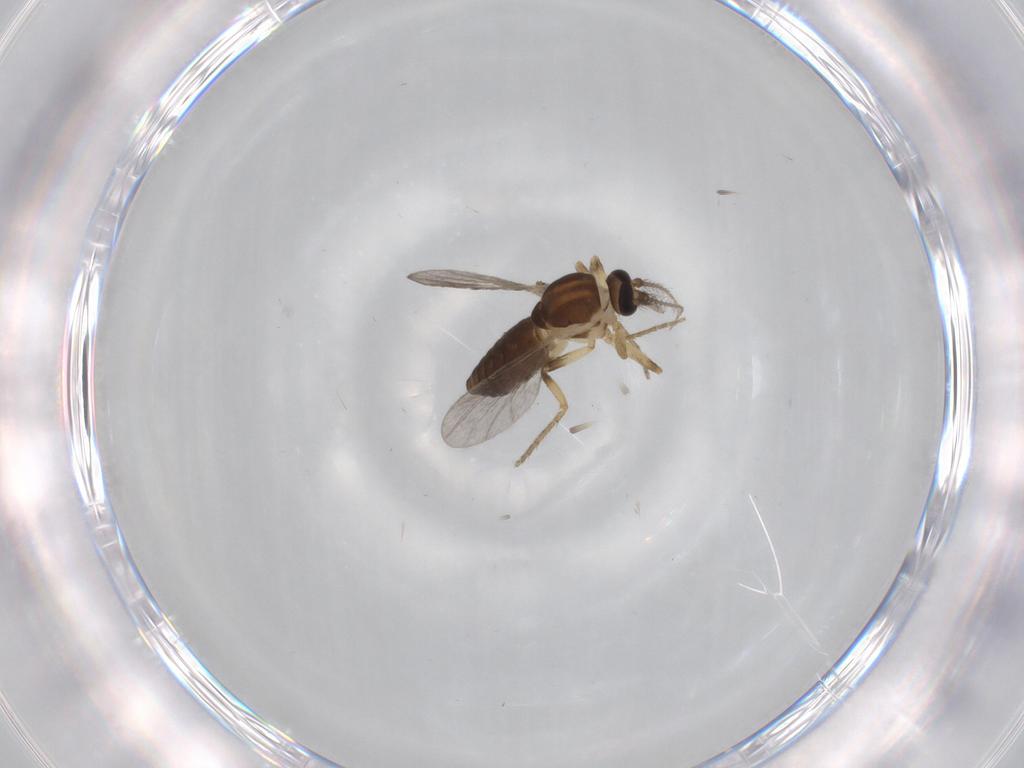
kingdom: Animalia
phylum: Arthropoda
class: Insecta
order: Diptera
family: Ceratopogonidae
